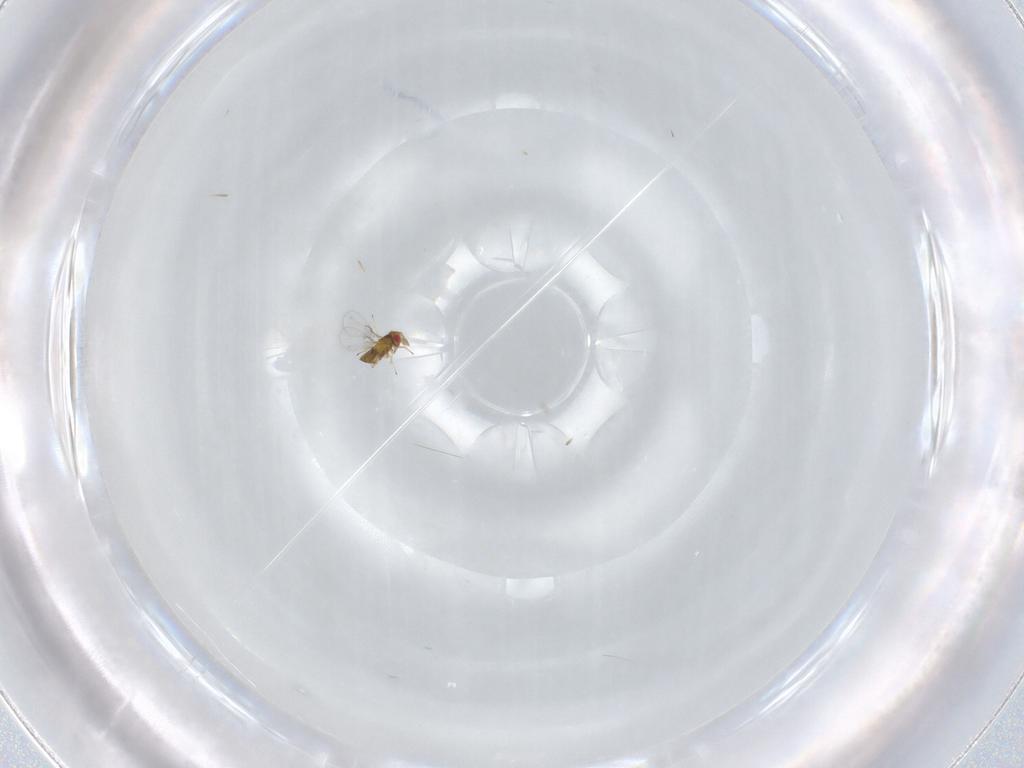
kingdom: Animalia
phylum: Arthropoda
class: Insecta
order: Hymenoptera
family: Trichogrammatidae
